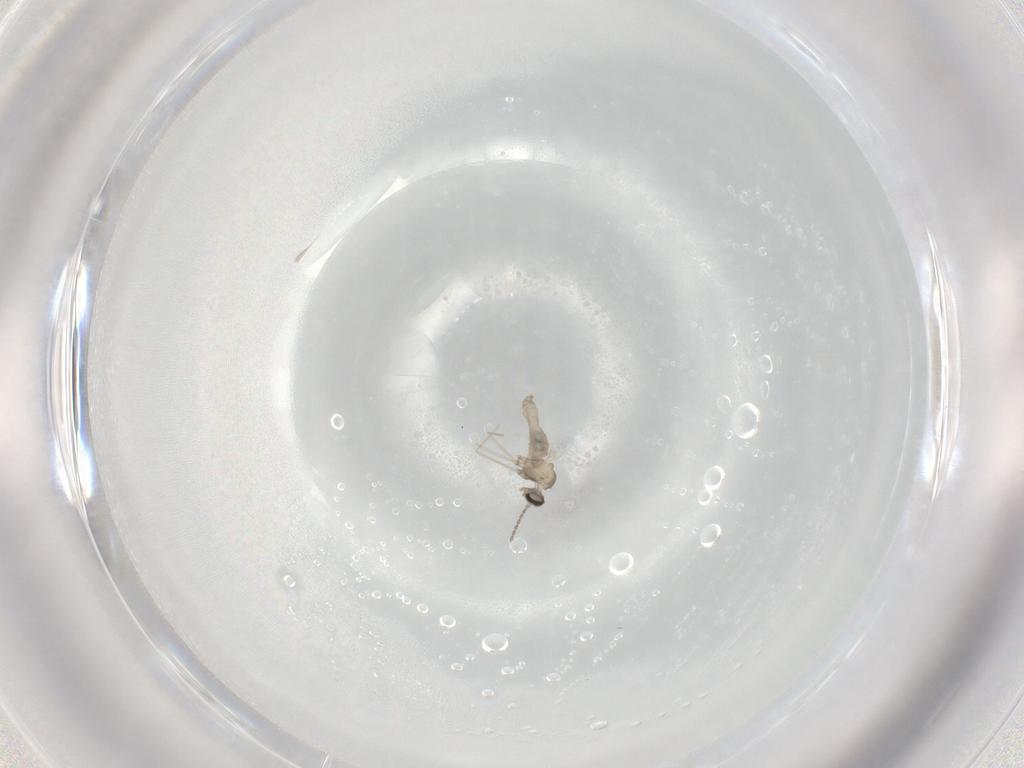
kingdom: Animalia
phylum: Arthropoda
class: Insecta
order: Diptera
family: Cecidomyiidae
